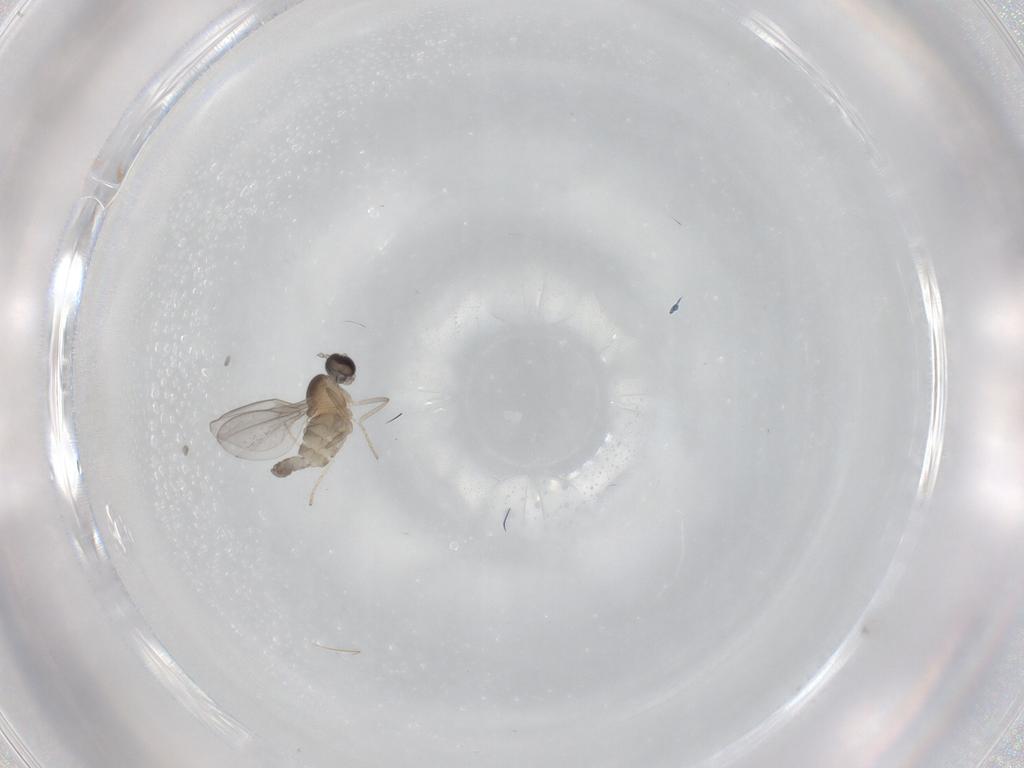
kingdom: Animalia
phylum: Arthropoda
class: Insecta
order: Diptera
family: Cecidomyiidae
